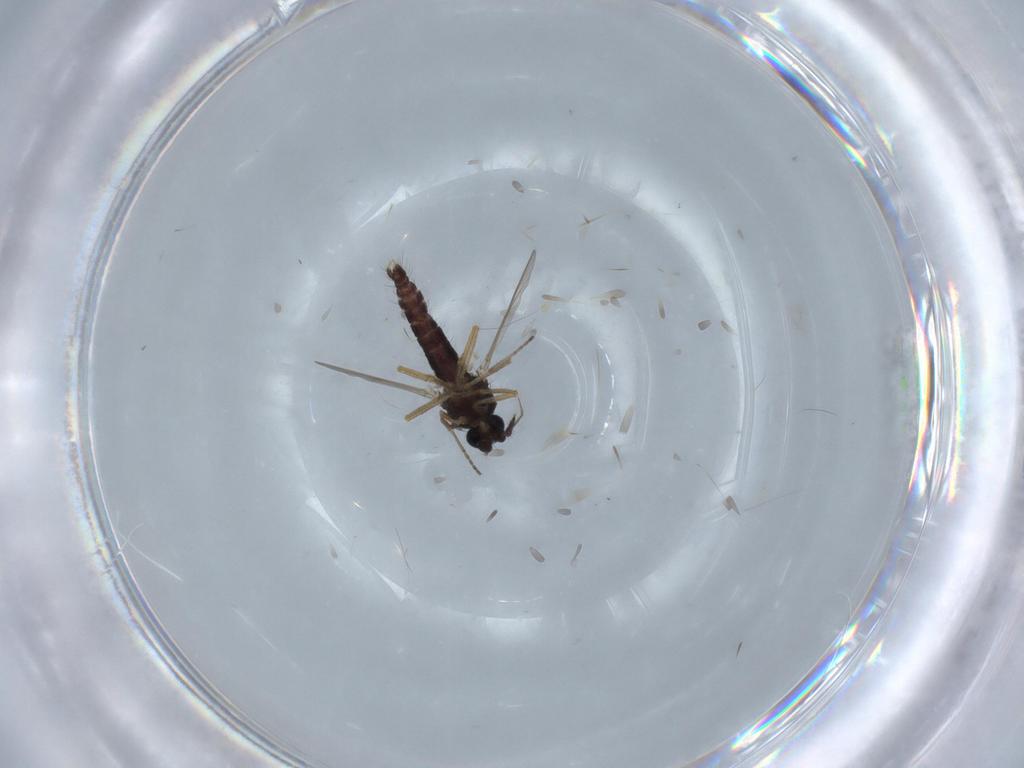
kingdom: Animalia
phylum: Arthropoda
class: Insecta
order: Diptera
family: Ceratopogonidae
